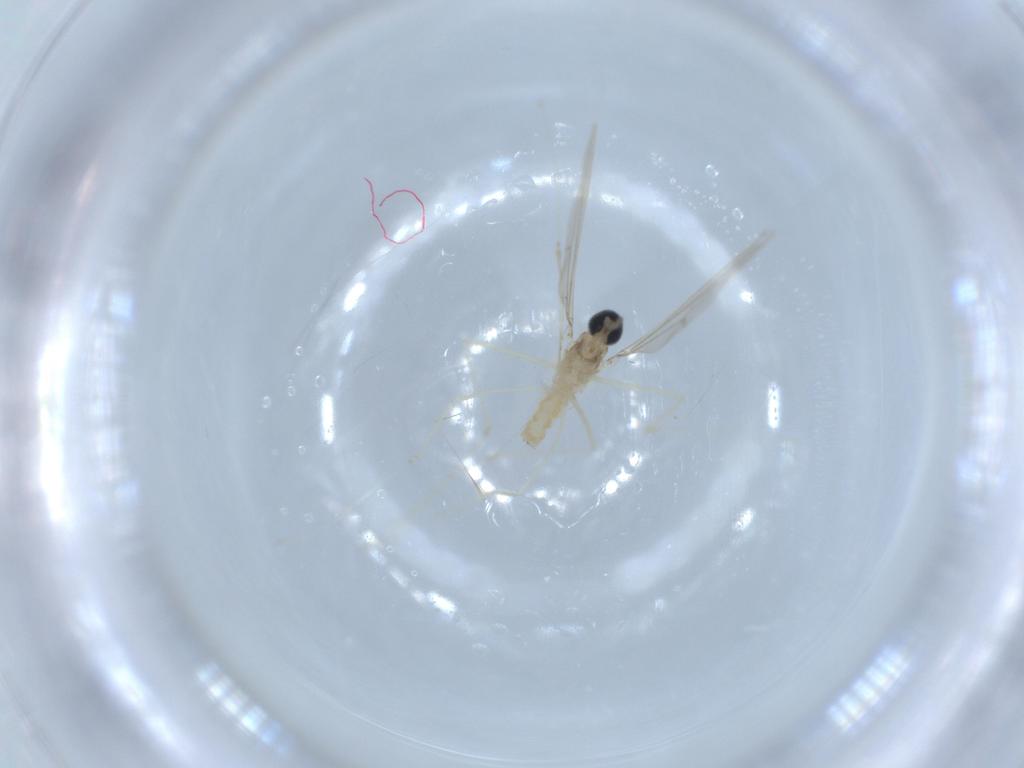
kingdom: Animalia
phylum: Arthropoda
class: Insecta
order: Diptera
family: Cecidomyiidae
